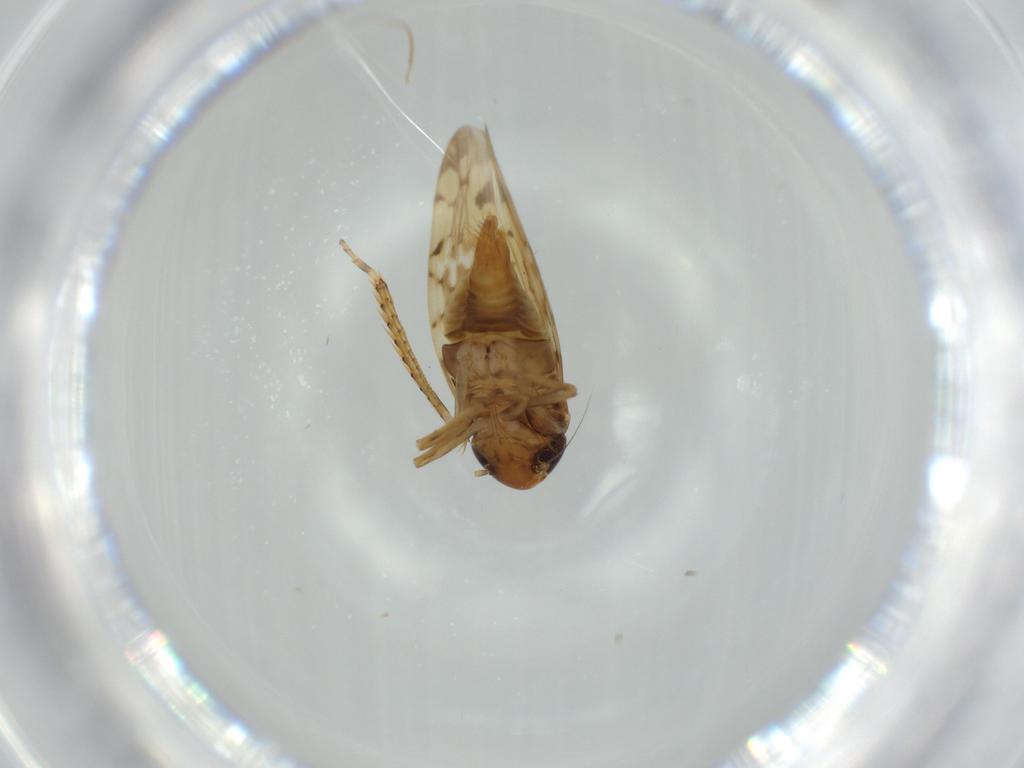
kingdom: Animalia
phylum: Arthropoda
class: Insecta
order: Hemiptera
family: Cicadellidae
